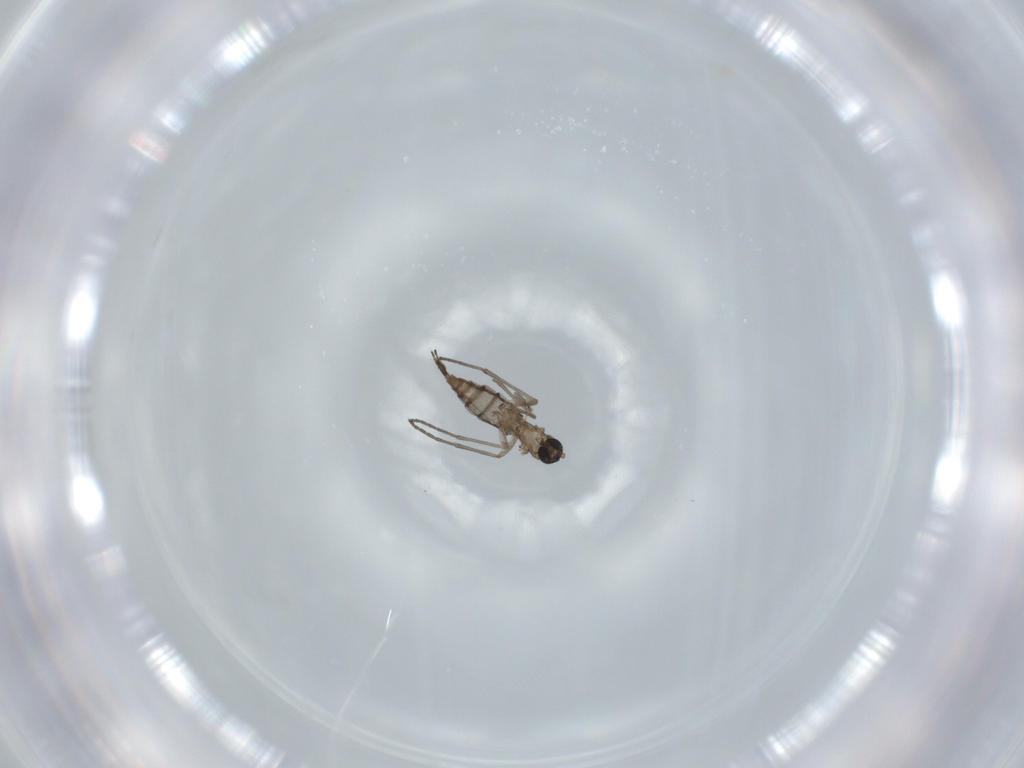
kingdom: Animalia
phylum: Arthropoda
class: Insecta
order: Diptera
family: Sciaridae
